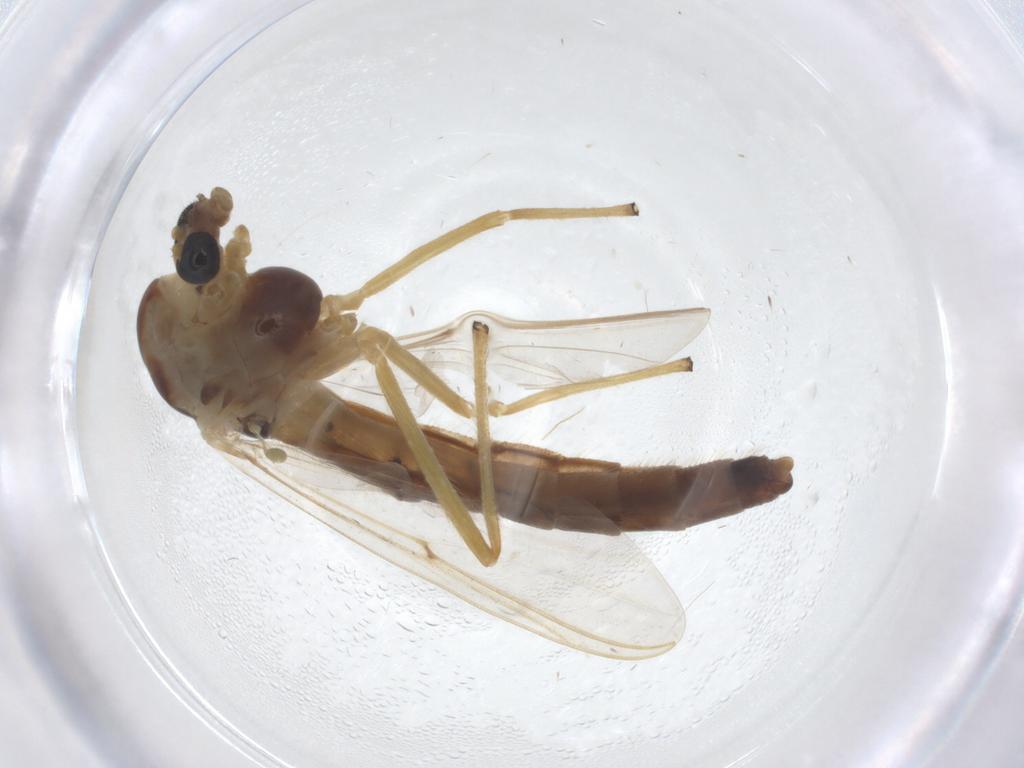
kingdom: Animalia
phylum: Arthropoda
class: Insecta
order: Diptera
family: Chironomidae
